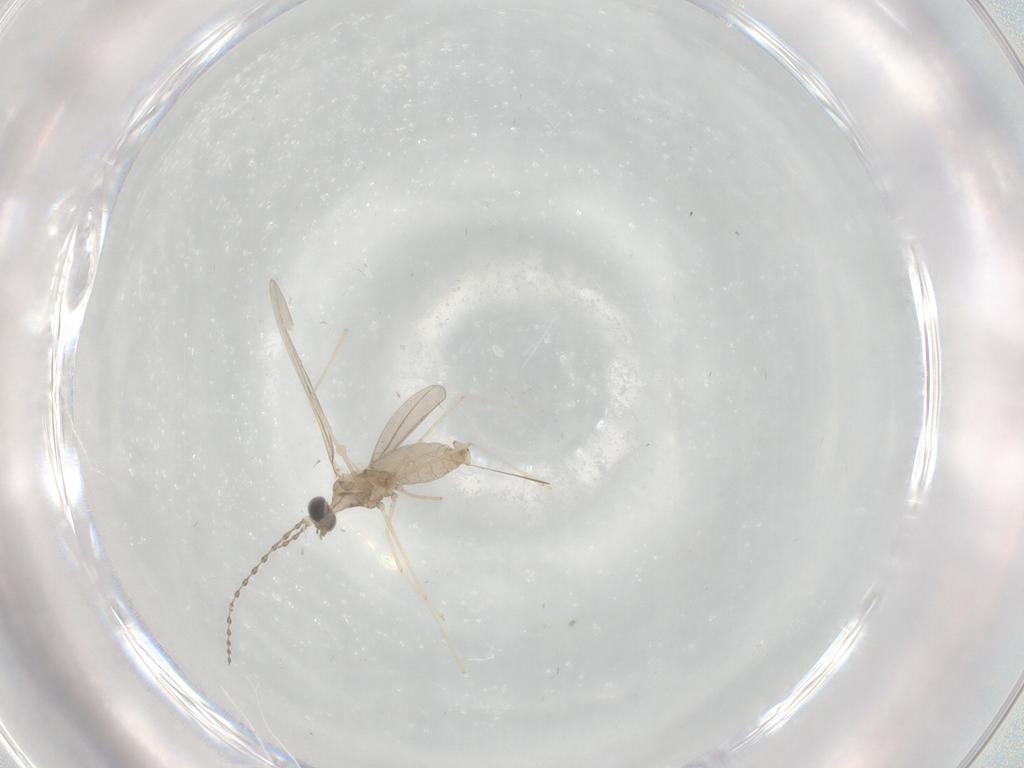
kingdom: Animalia
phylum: Arthropoda
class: Insecta
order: Diptera
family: Cecidomyiidae
